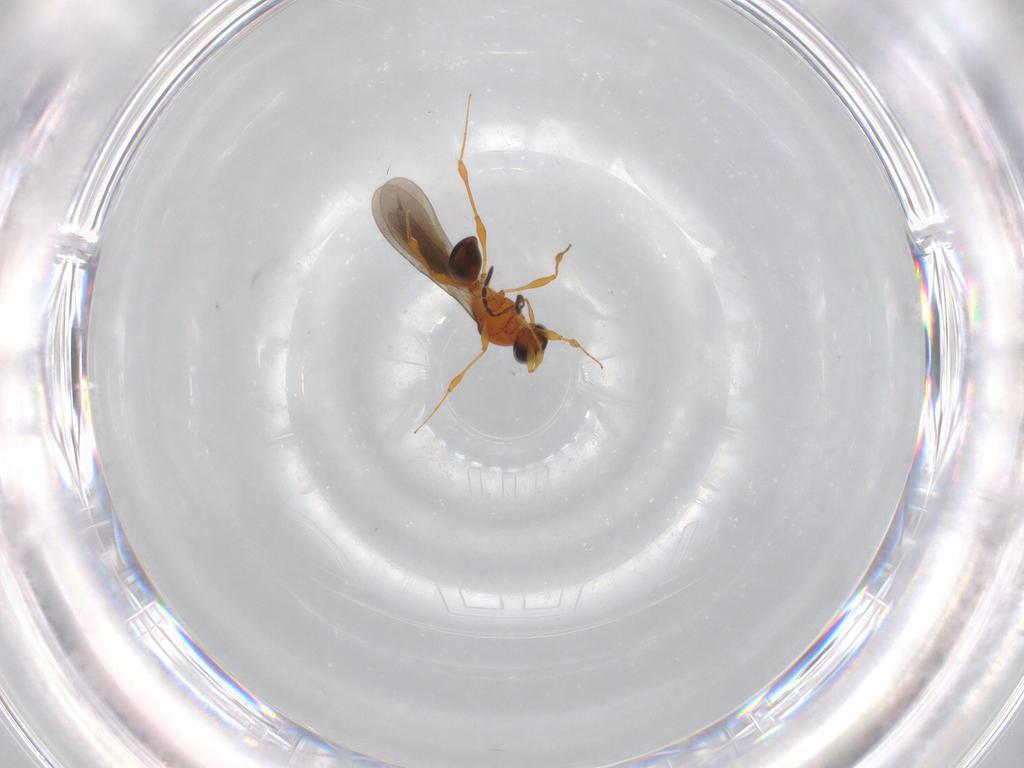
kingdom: Animalia
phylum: Arthropoda
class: Insecta
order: Hymenoptera
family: Platygastridae
